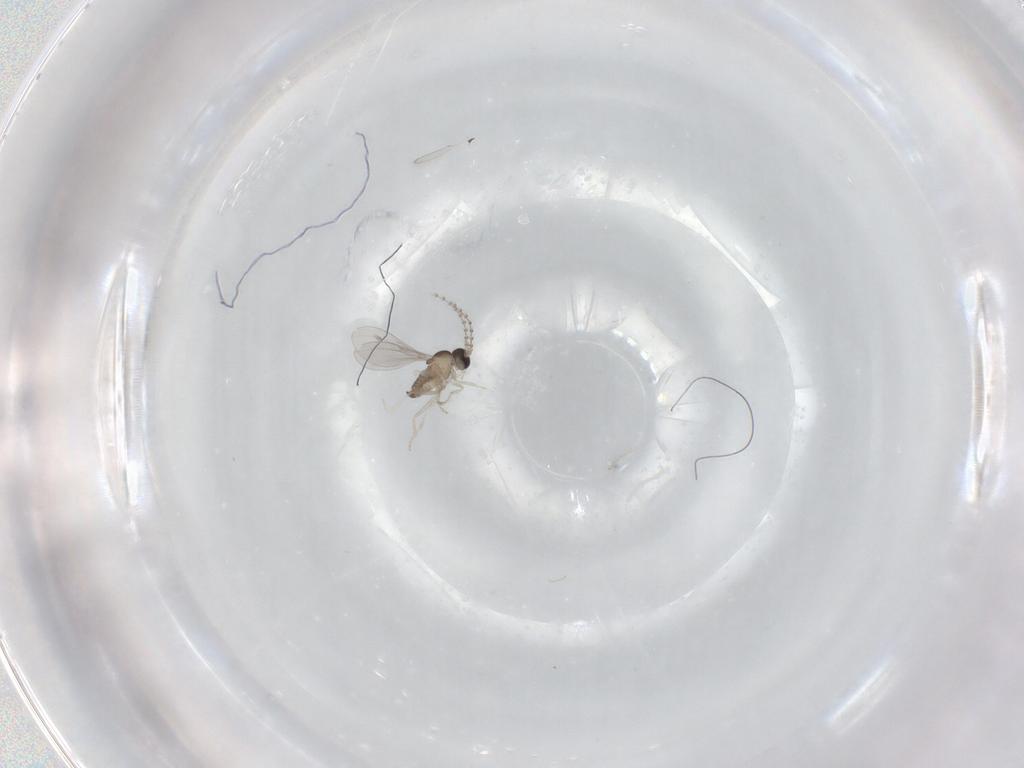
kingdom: Animalia
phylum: Arthropoda
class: Insecta
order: Diptera
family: Cecidomyiidae
